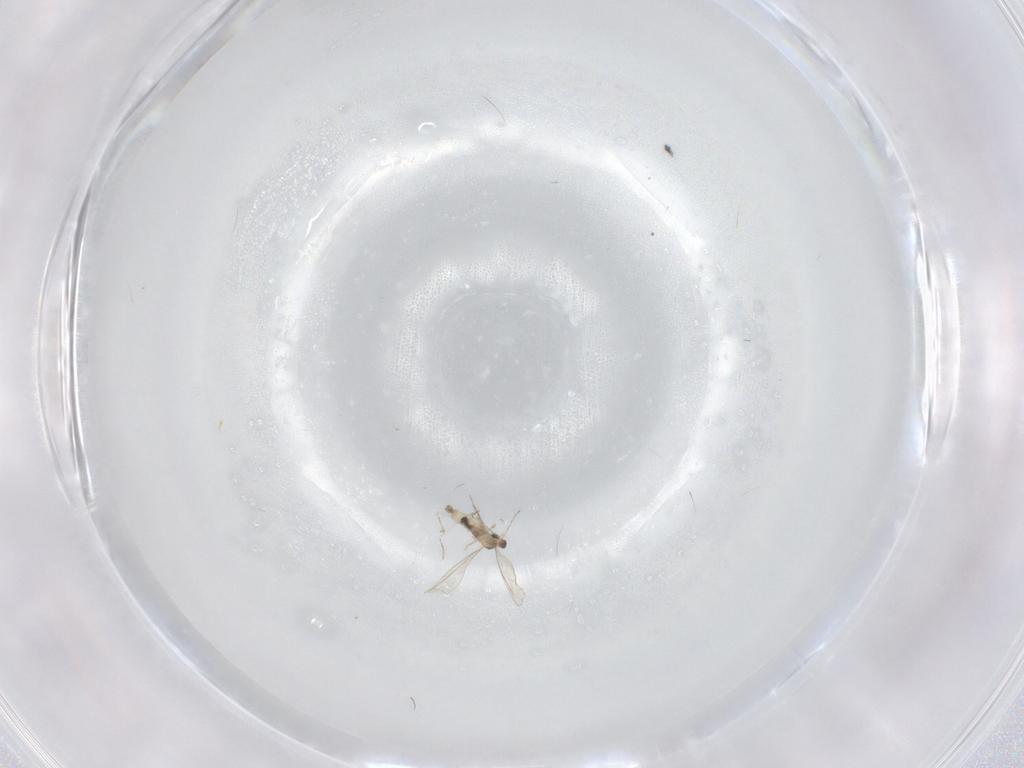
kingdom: Animalia
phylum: Arthropoda
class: Insecta
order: Diptera
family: Cecidomyiidae
